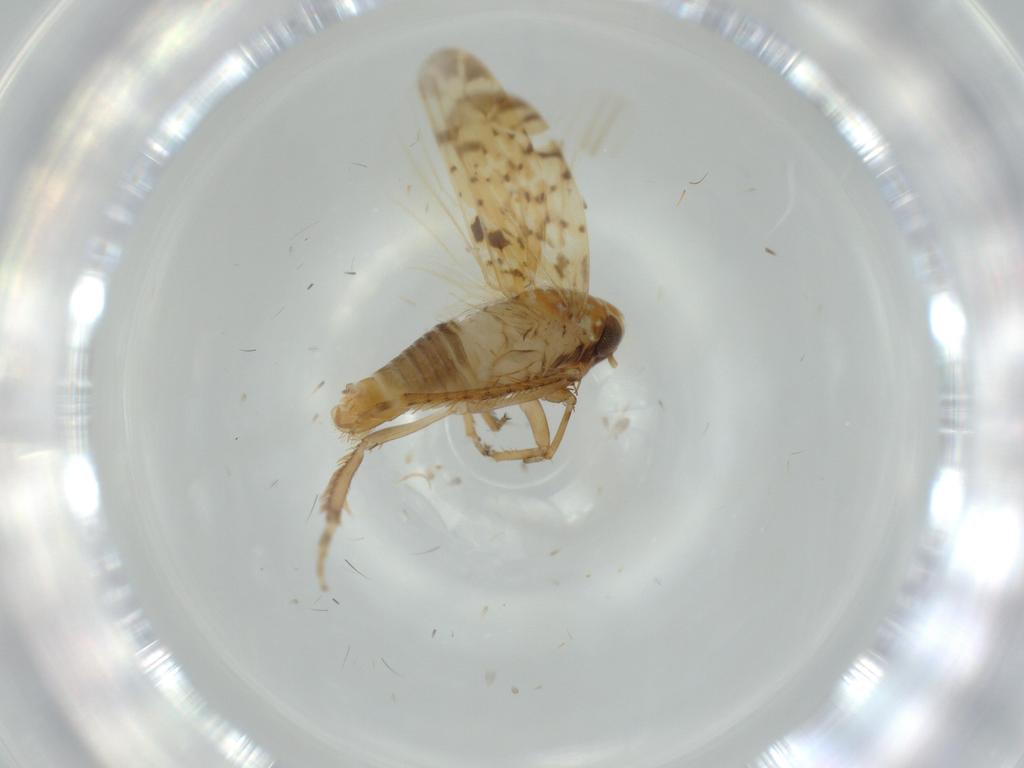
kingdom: Animalia
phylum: Arthropoda
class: Insecta
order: Hemiptera
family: Cicadellidae
